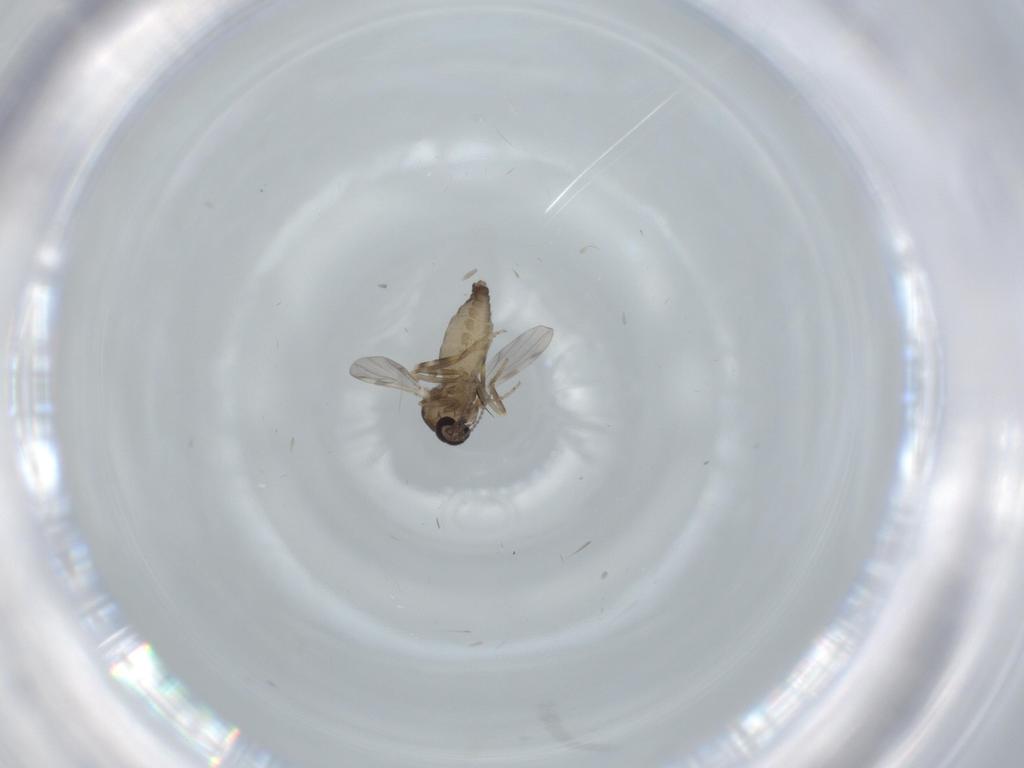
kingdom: Animalia
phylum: Arthropoda
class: Insecta
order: Diptera
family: Ceratopogonidae
